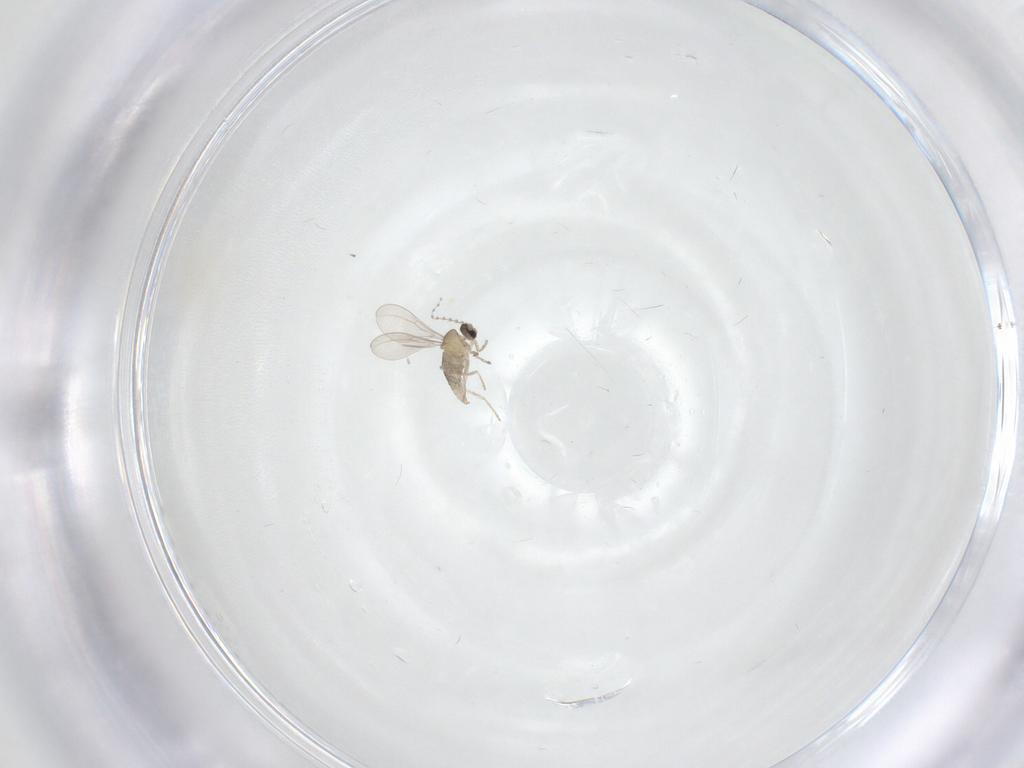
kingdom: Animalia
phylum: Arthropoda
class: Insecta
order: Diptera
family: Cecidomyiidae
